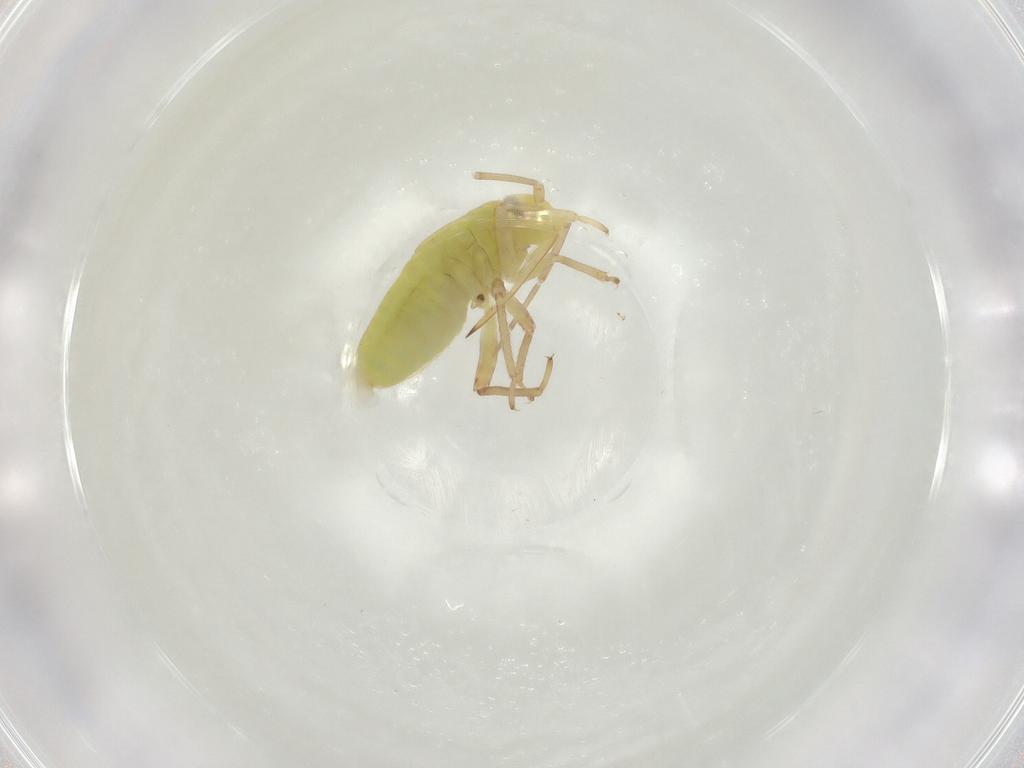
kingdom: Animalia
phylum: Arthropoda
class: Insecta
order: Hemiptera
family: Miridae
